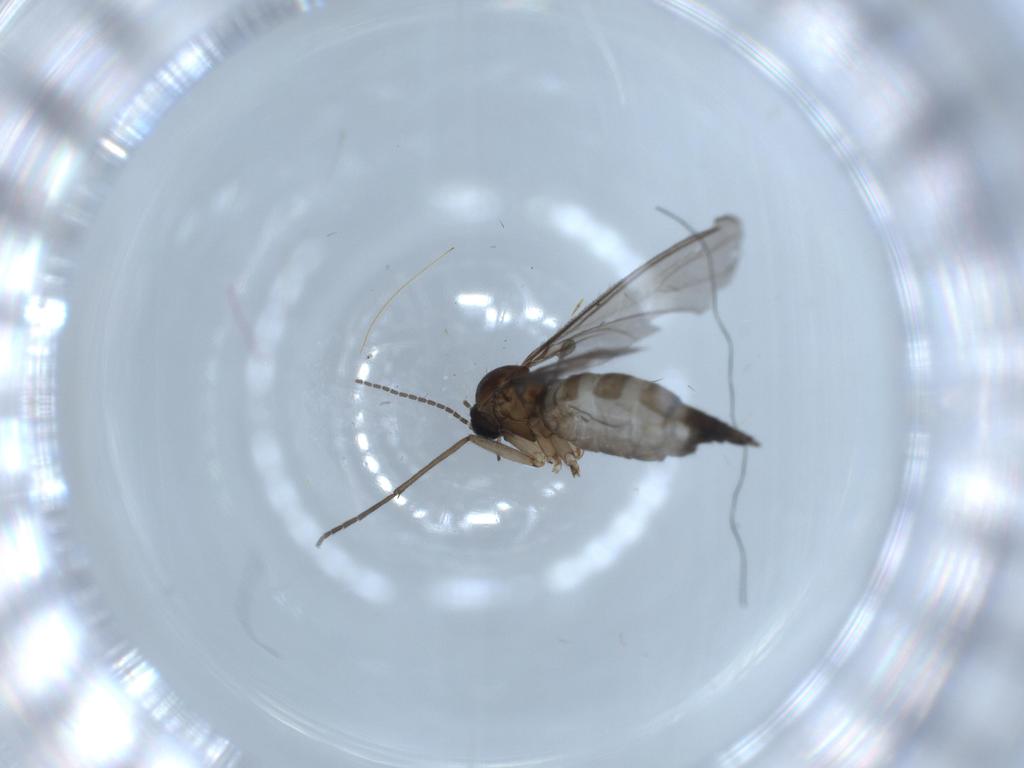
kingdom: Animalia
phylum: Arthropoda
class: Insecta
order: Diptera
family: Sciaridae
